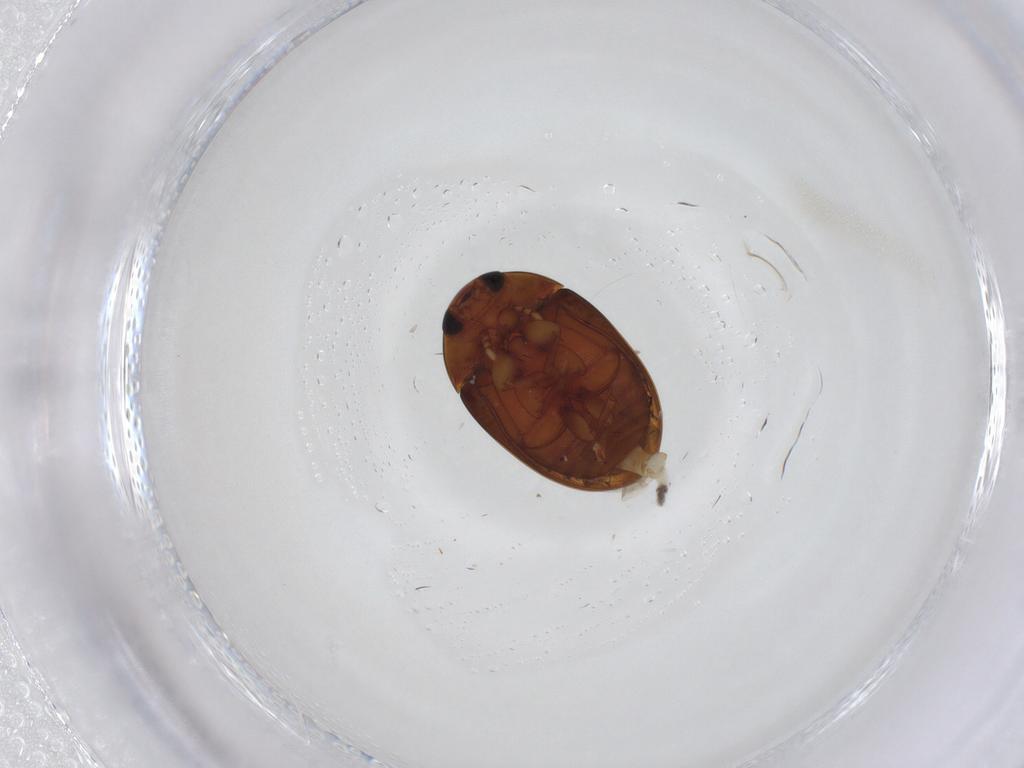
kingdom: Animalia
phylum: Arthropoda
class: Insecta
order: Coleoptera
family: Phalacridae
